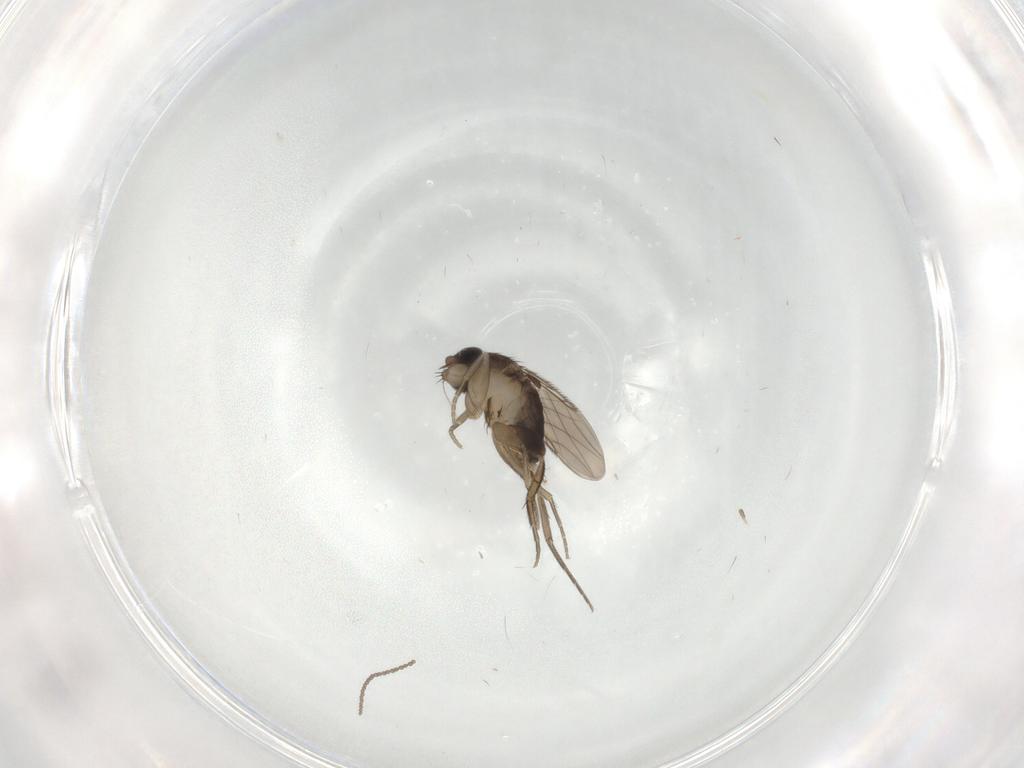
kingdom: Animalia
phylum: Arthropoda
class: Insecta
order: Diptera
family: Phoridae
